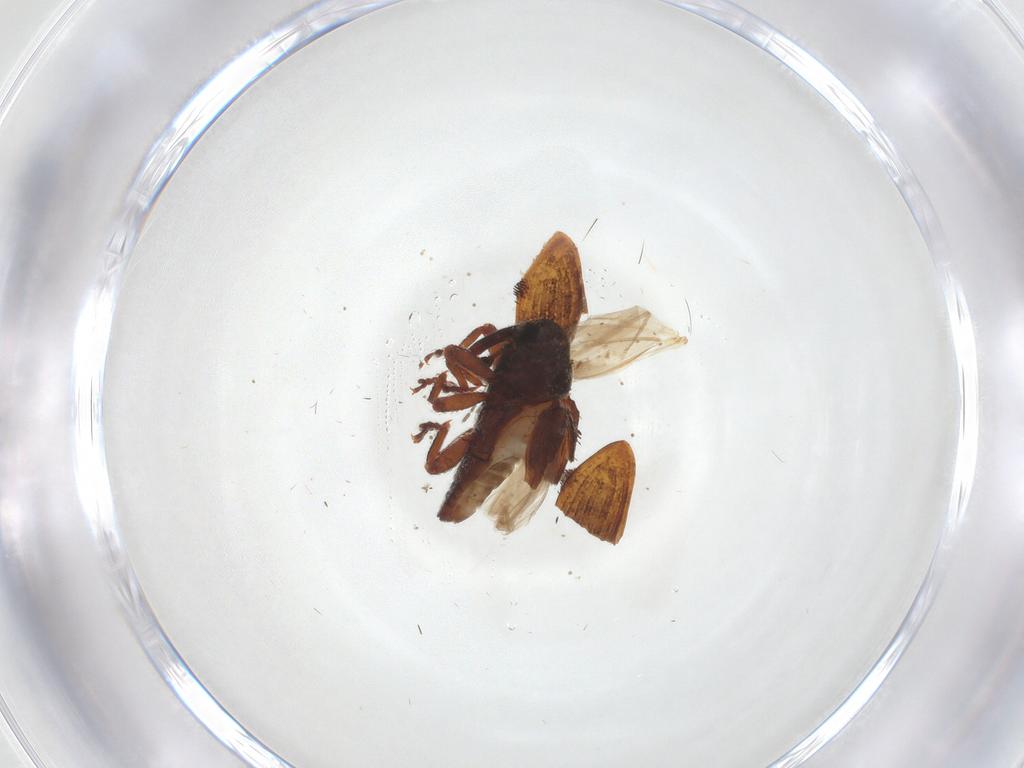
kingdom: Animalia
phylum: Arthropoda
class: Insecta
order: Coleoptera
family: Curculionidae
